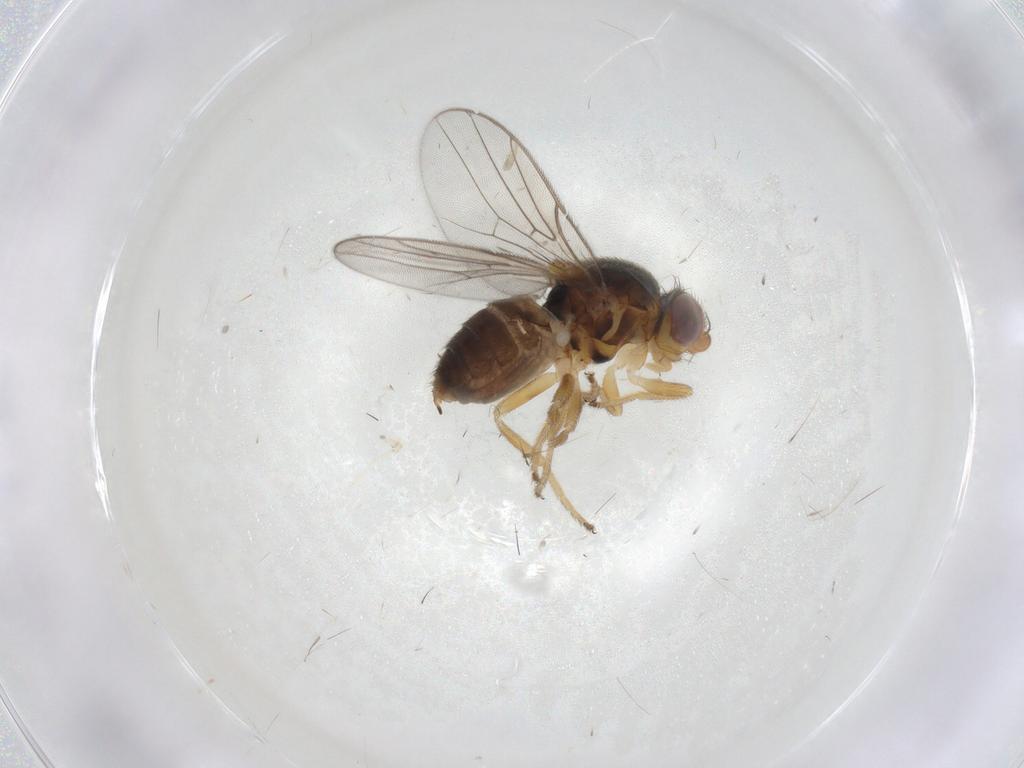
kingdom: Animalia
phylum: Arthropoda
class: Insecta
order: Diptera
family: Chloropidae
